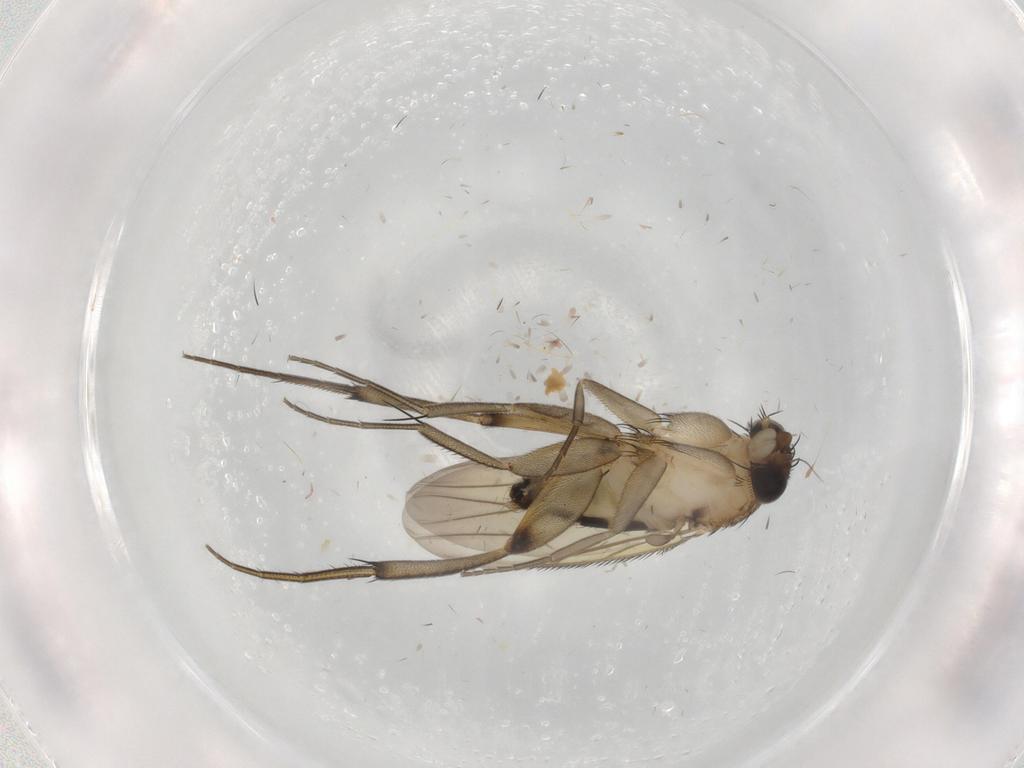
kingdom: Animalia
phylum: Arthropoda
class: Insecta
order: Diptera
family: Phoridae
